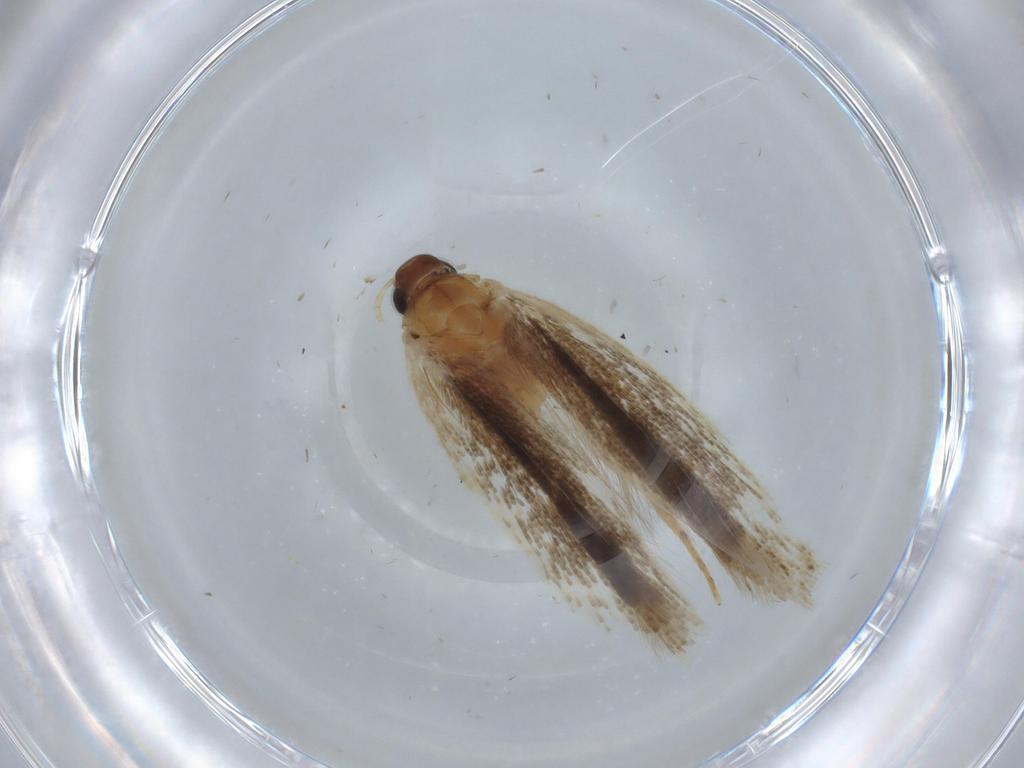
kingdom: Animalia
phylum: Arthropoda
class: Insecta
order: Lepidoptera
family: Gelechiidae
